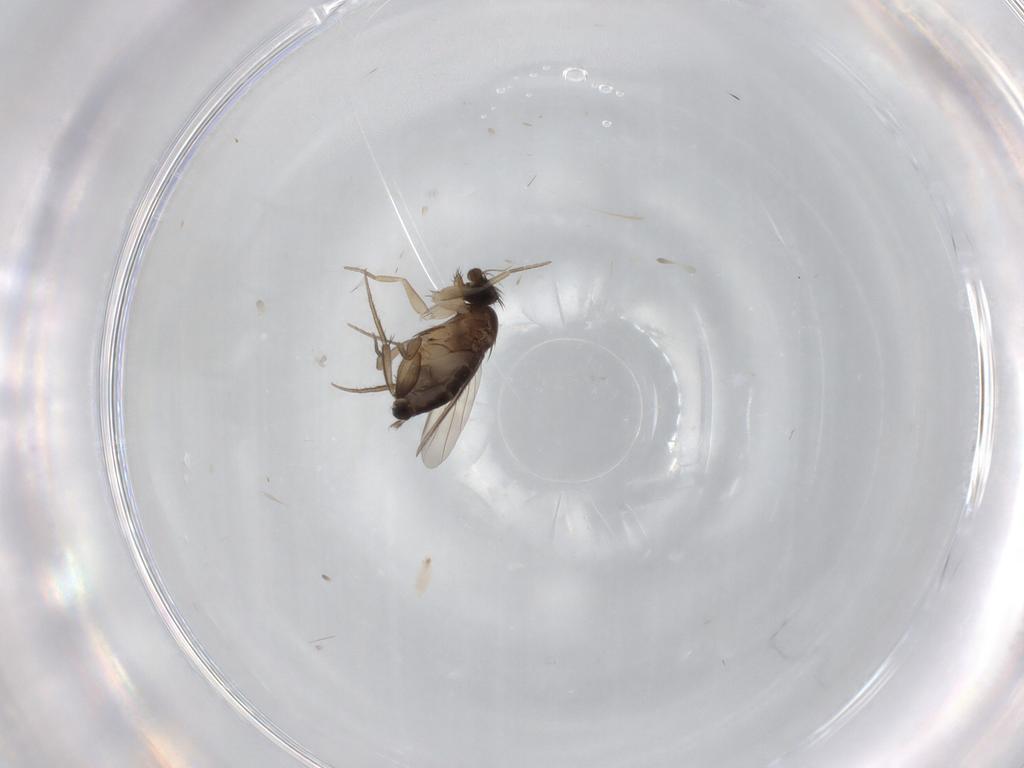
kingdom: Animalia
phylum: Arthropoda
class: Insecta
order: Diptera
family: Phoridae
